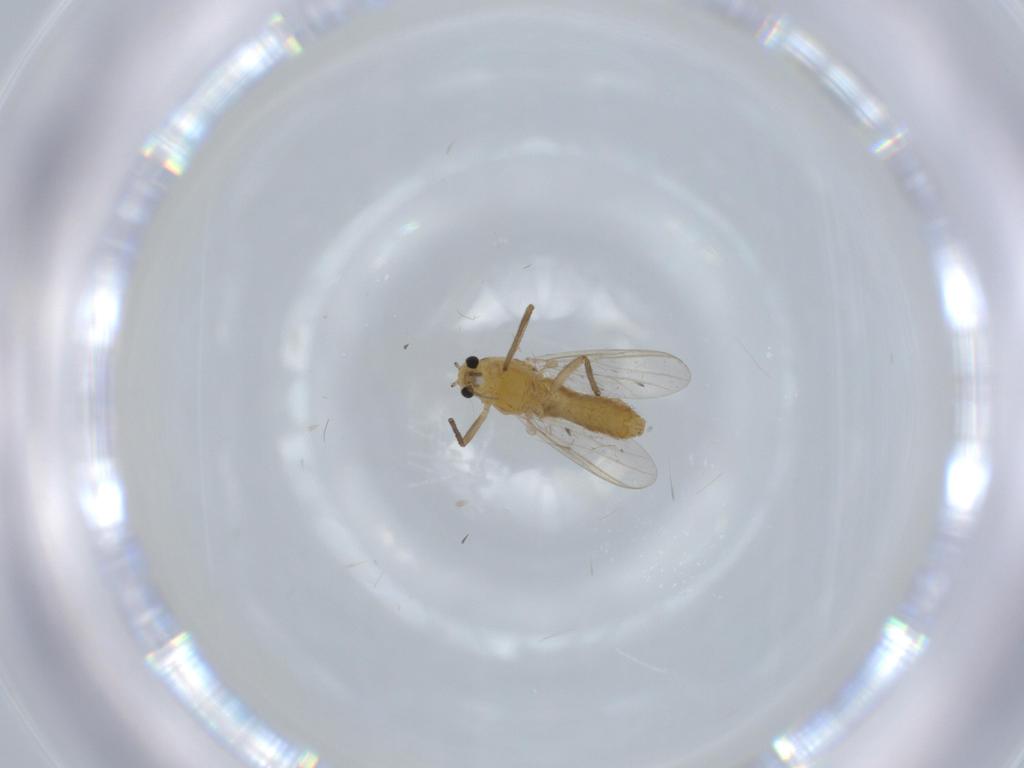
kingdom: Animalia
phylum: Arthropoda
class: Insecta
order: Diptera
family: Chironomidae
